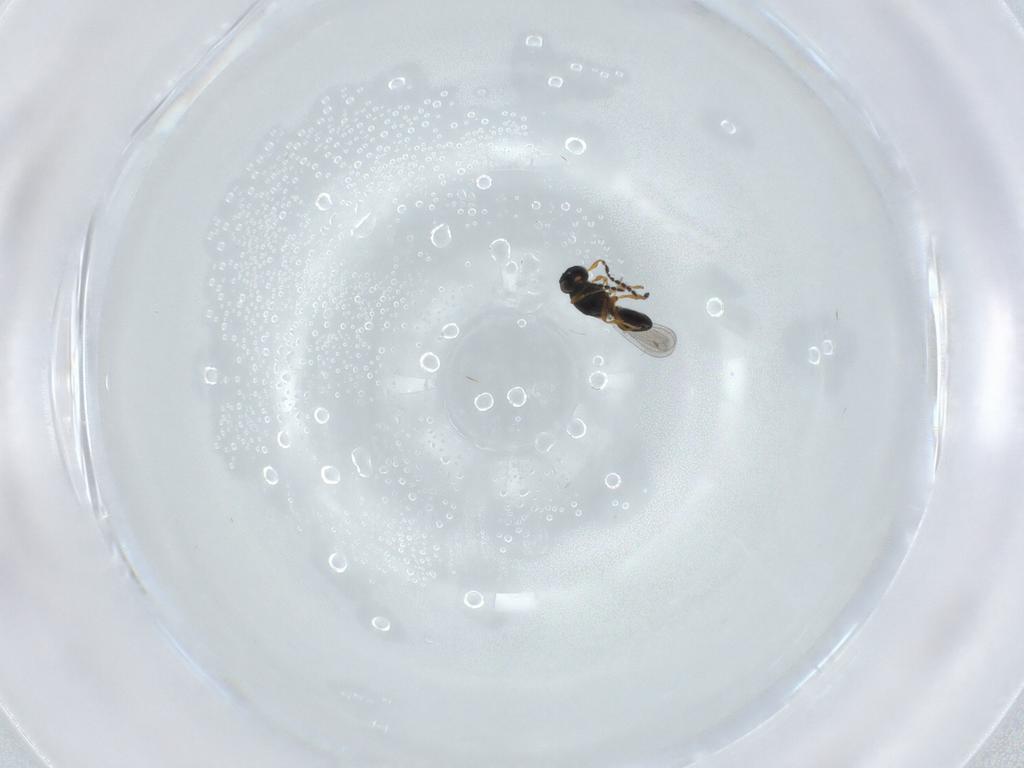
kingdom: Animalia
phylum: Arthropoda
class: Insecta
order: Hymenoptera
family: Platygastridae
